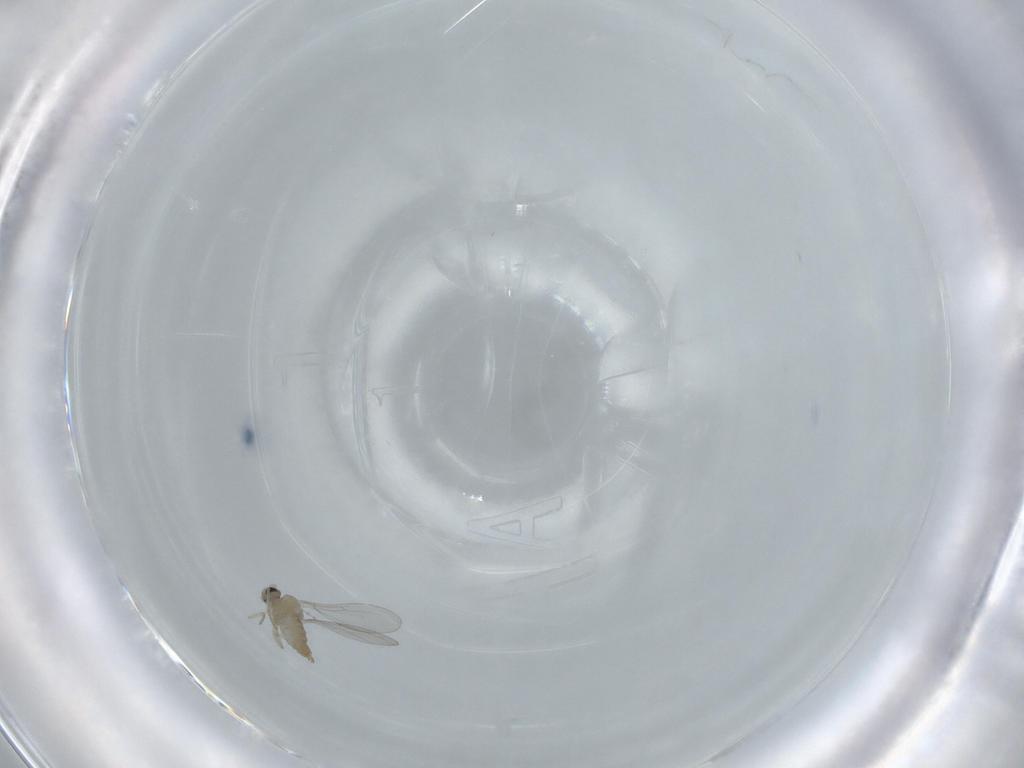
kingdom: Animalia
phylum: Arthropoda
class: Insecta
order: Diptera
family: Cecidomyiidae
